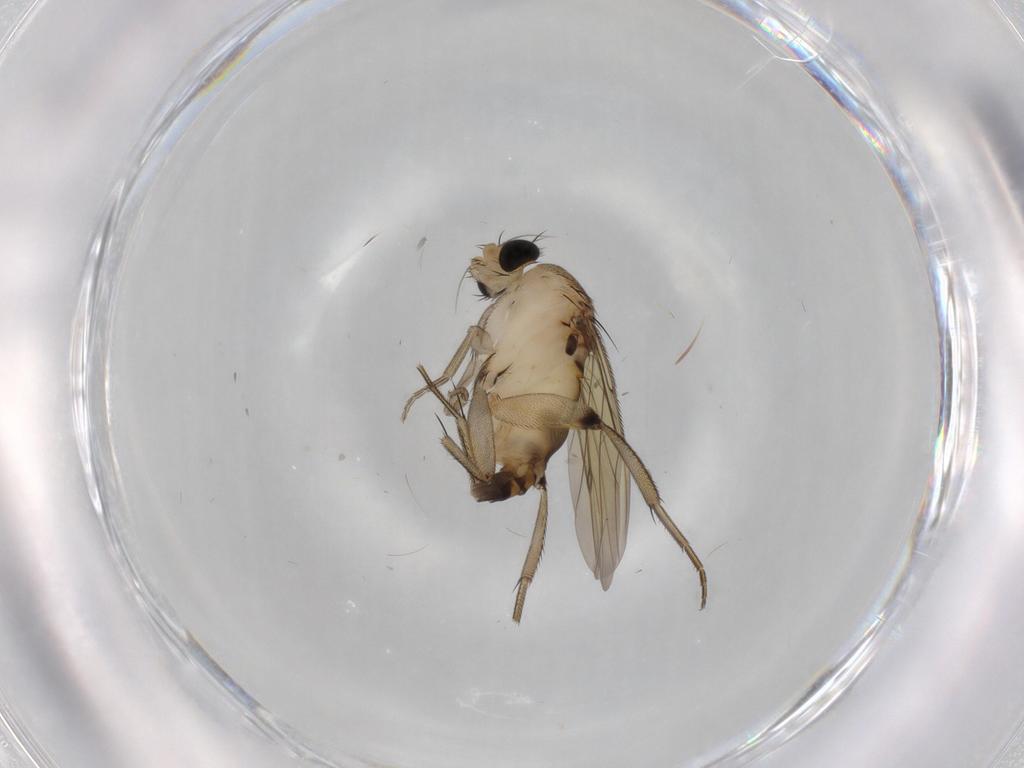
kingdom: Animalia
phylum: Arthropoda
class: Insecta
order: Diptera
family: Phoridae
